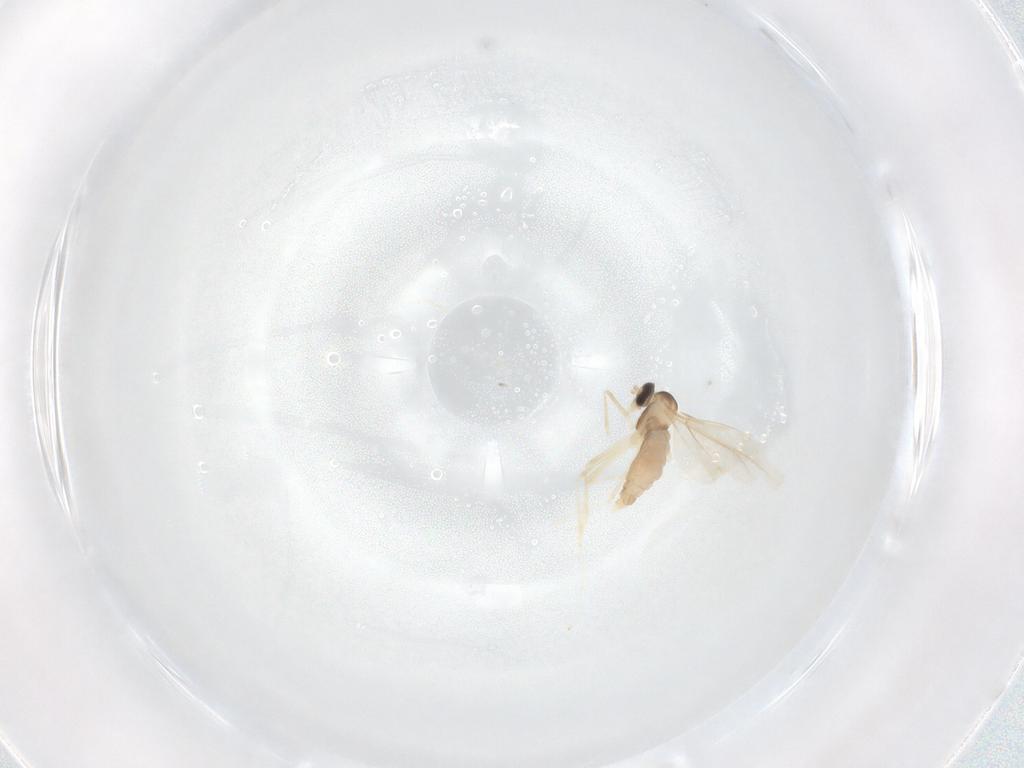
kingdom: Animalia
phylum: Arthropoda
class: Insecta
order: Diptera
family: Cecidomyiidae
